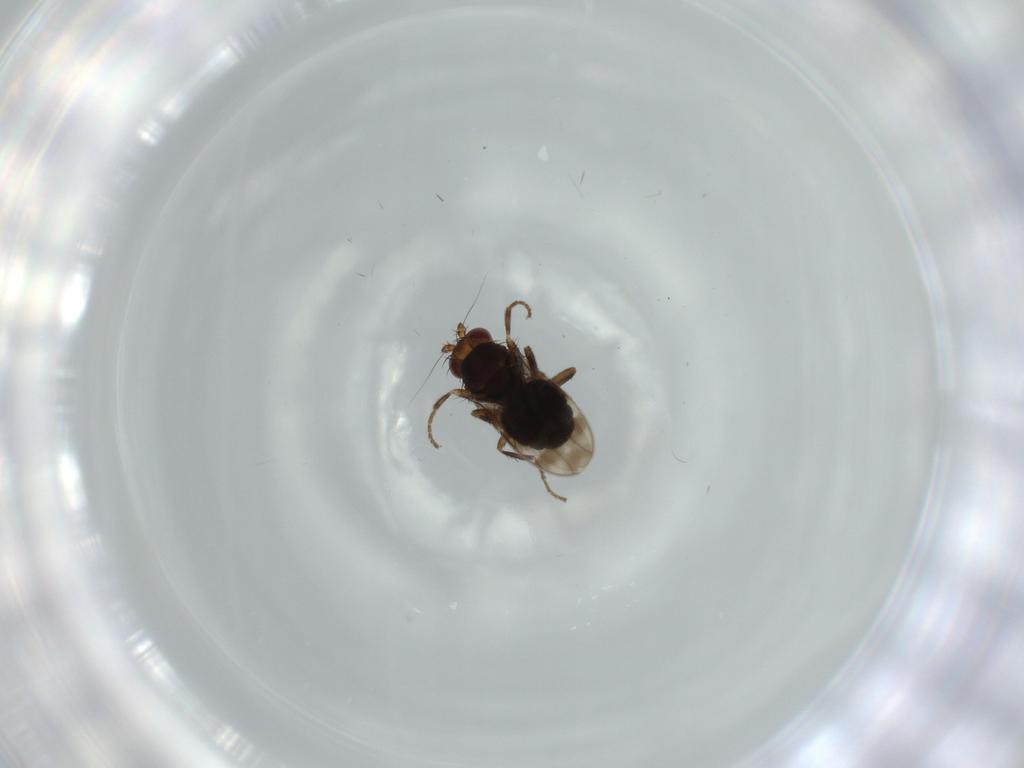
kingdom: Animalia
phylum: Arthropoda
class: Insecta
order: Diptera
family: Sphaeroceridae
